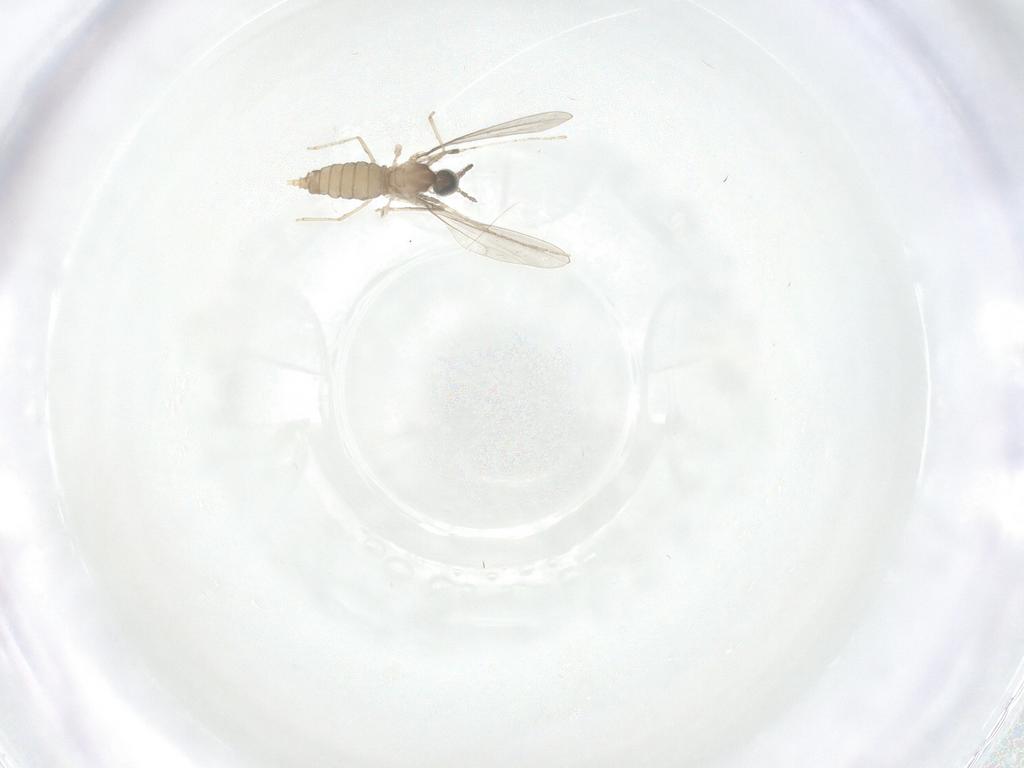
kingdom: Animalia
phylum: Arthropoda
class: Insecta
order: Diptera
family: Cecidomyiidae
